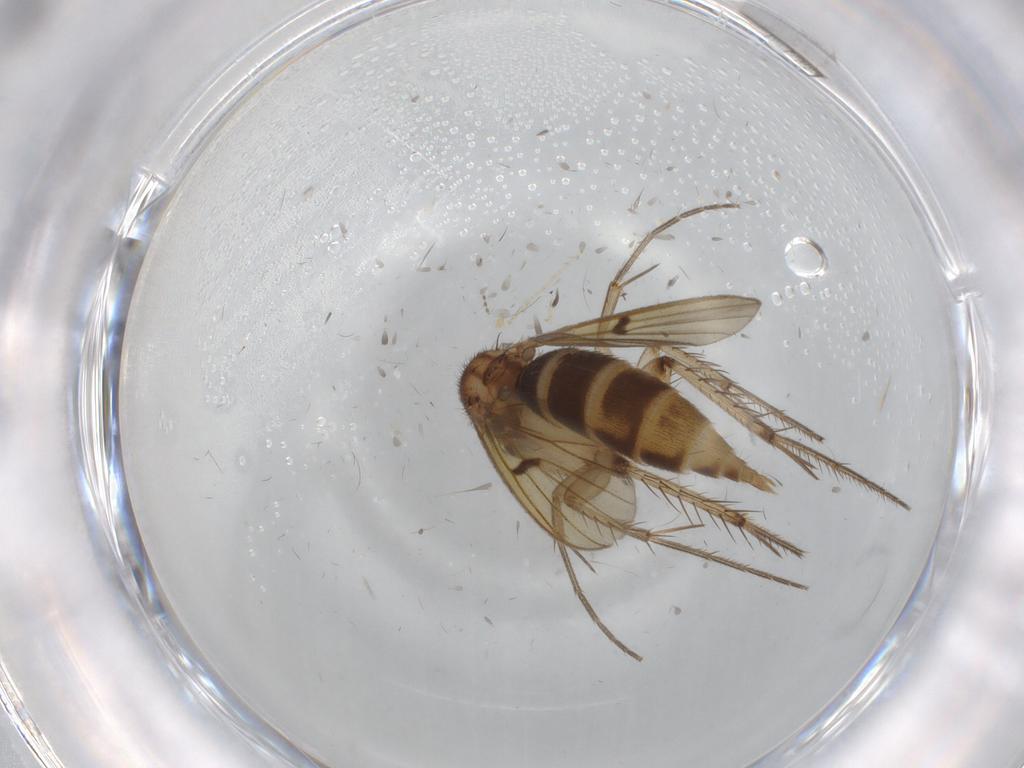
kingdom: Animalia
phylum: Arthropoda
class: Insecta
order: Diptera
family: Mycetophilidae
